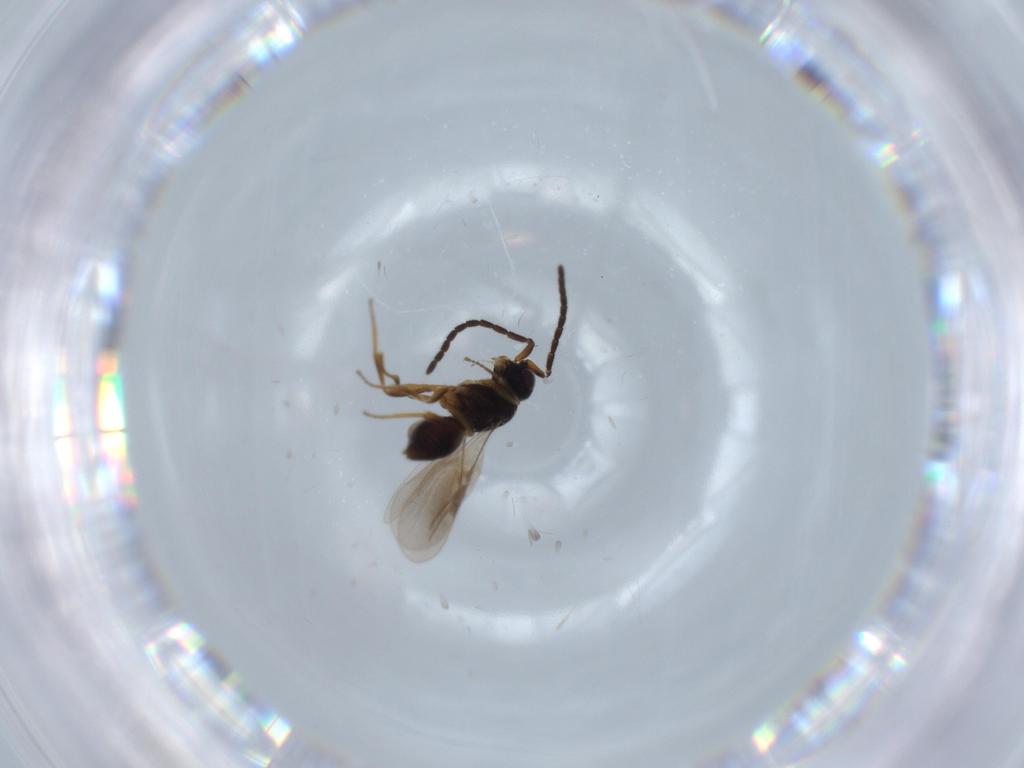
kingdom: Animalia
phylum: Arthropoda
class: Insecta
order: Hymenoptera
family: Megaspilidae
